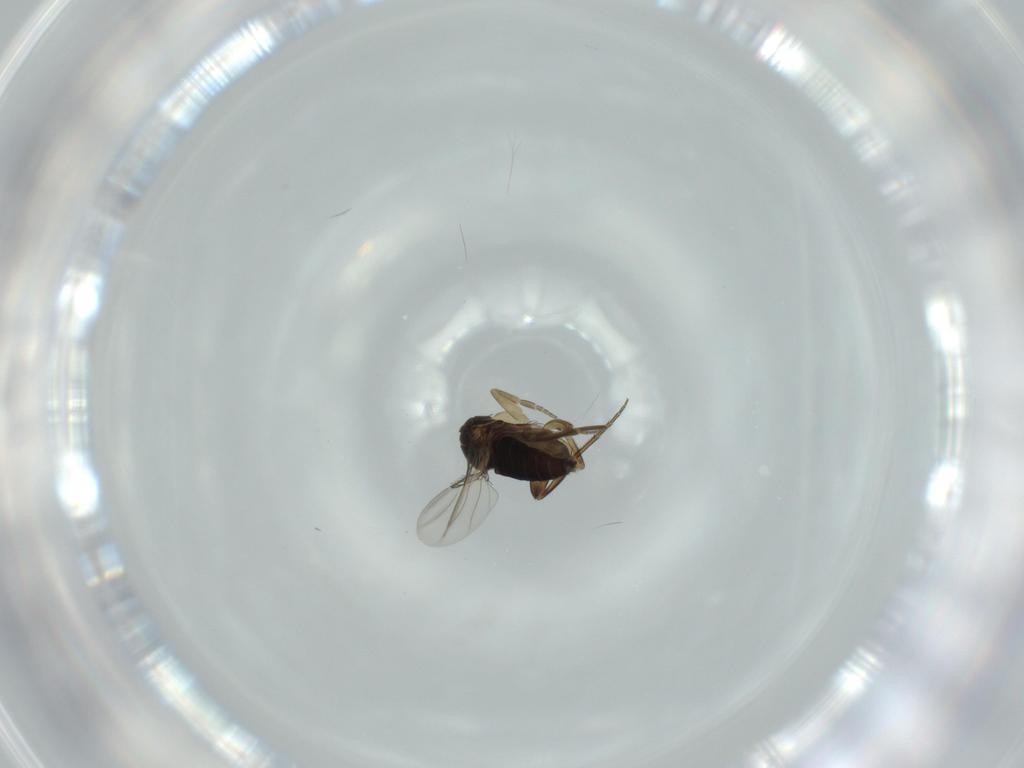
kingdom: Animalia
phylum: Arthropoda
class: Insecta
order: Diptera
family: Phoridae
